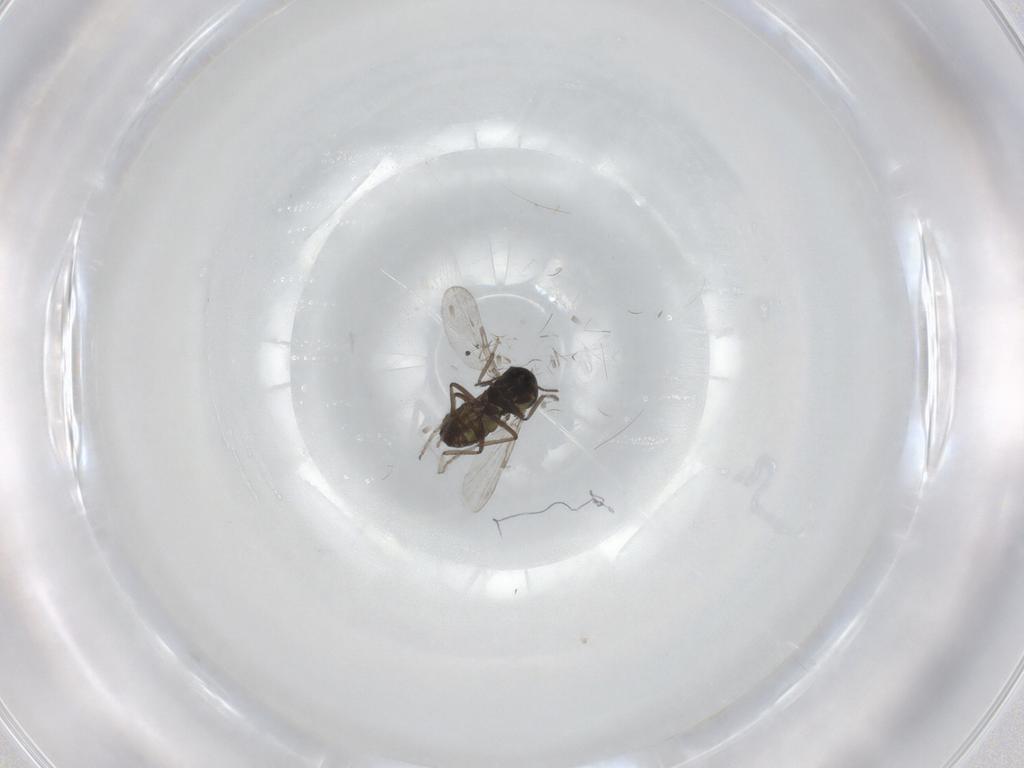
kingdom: Animalia
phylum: Arthropoda
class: Insecta
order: Diptera
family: Ceratopogonidae
